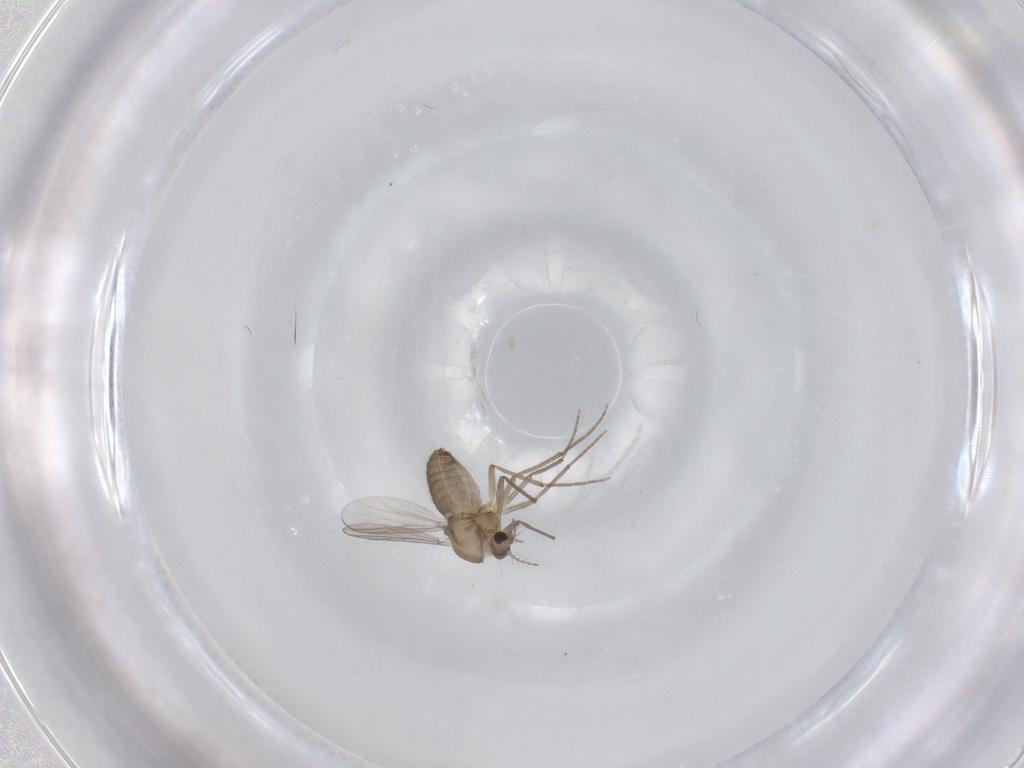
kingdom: Animalia
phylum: Arthropoda
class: Insecta
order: Diptera
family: Chironomidae
